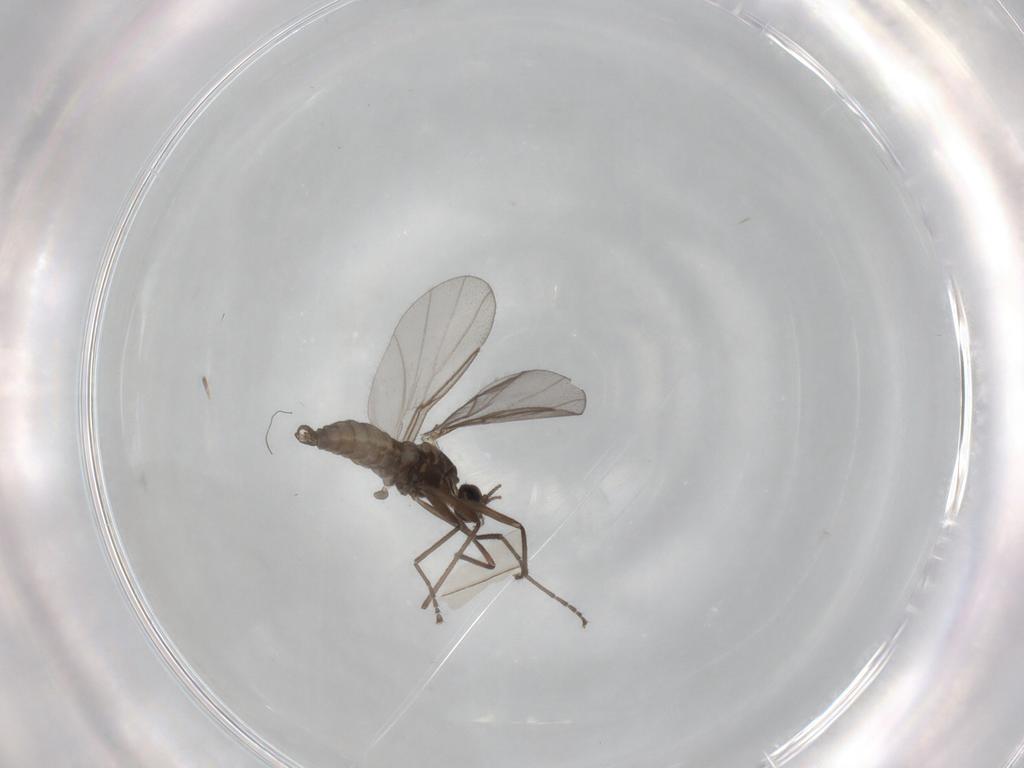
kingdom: Animalia
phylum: Arthropoda
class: Insecta
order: Diptera
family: Cecidomyiidae
